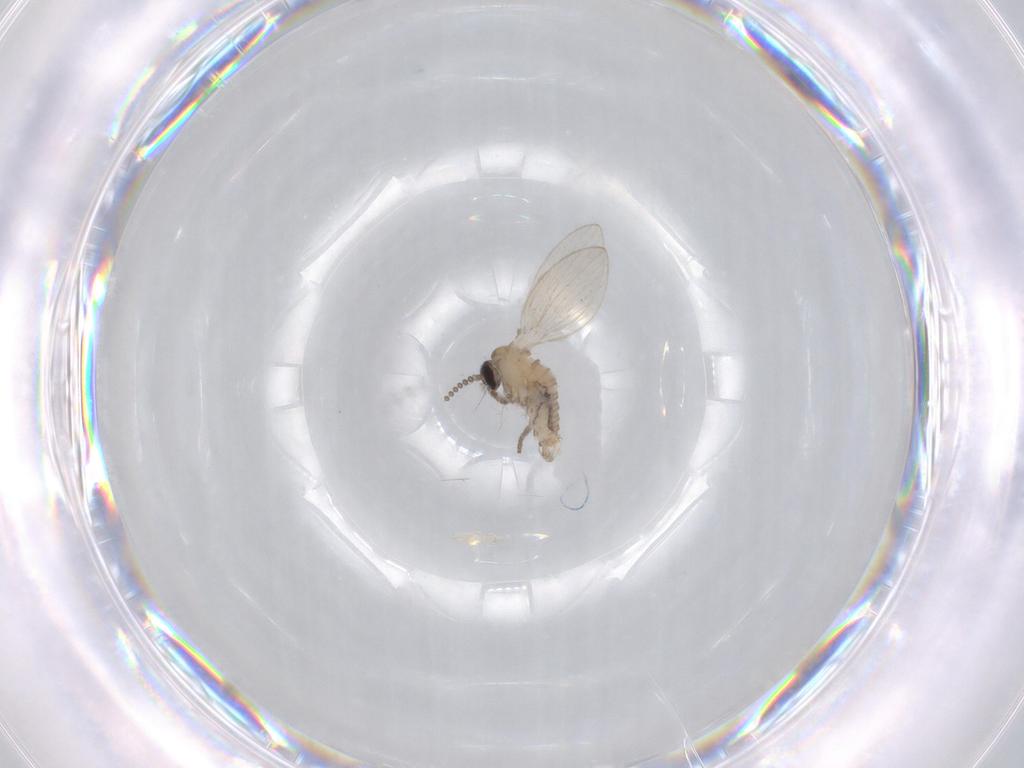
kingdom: Animalia
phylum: Arthropoda
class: Insecta
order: Diptera
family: Psychodidae
